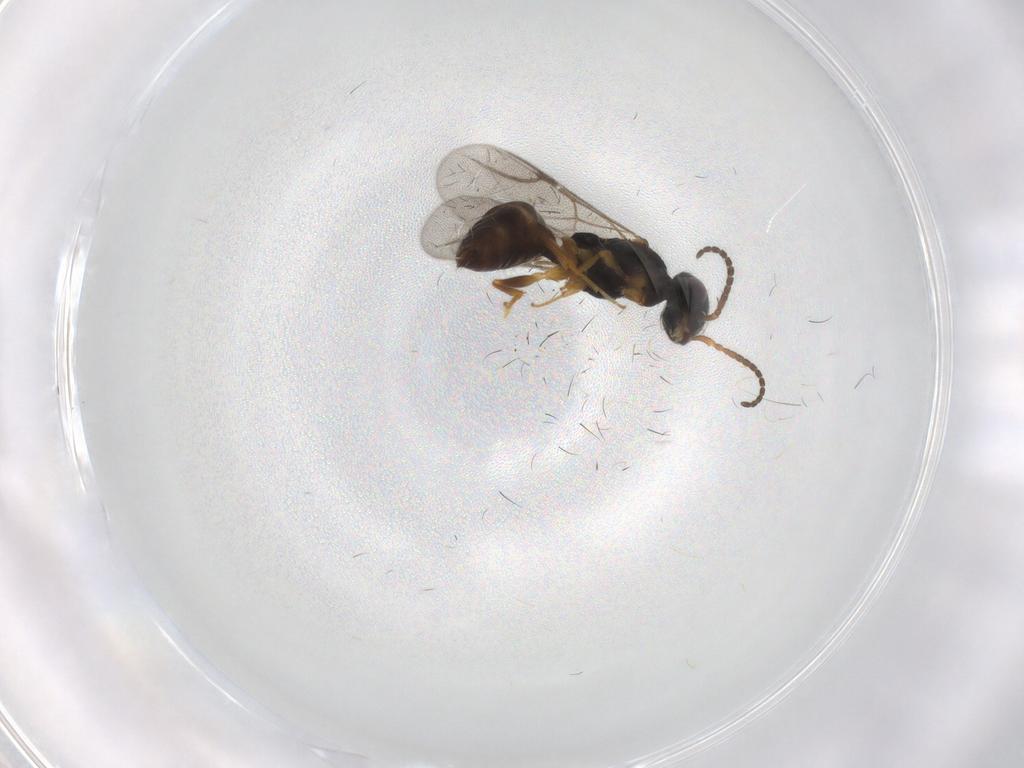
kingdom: Animalia
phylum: Arthropoda
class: Insecta
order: Hymenoptera
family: Bethylidae
